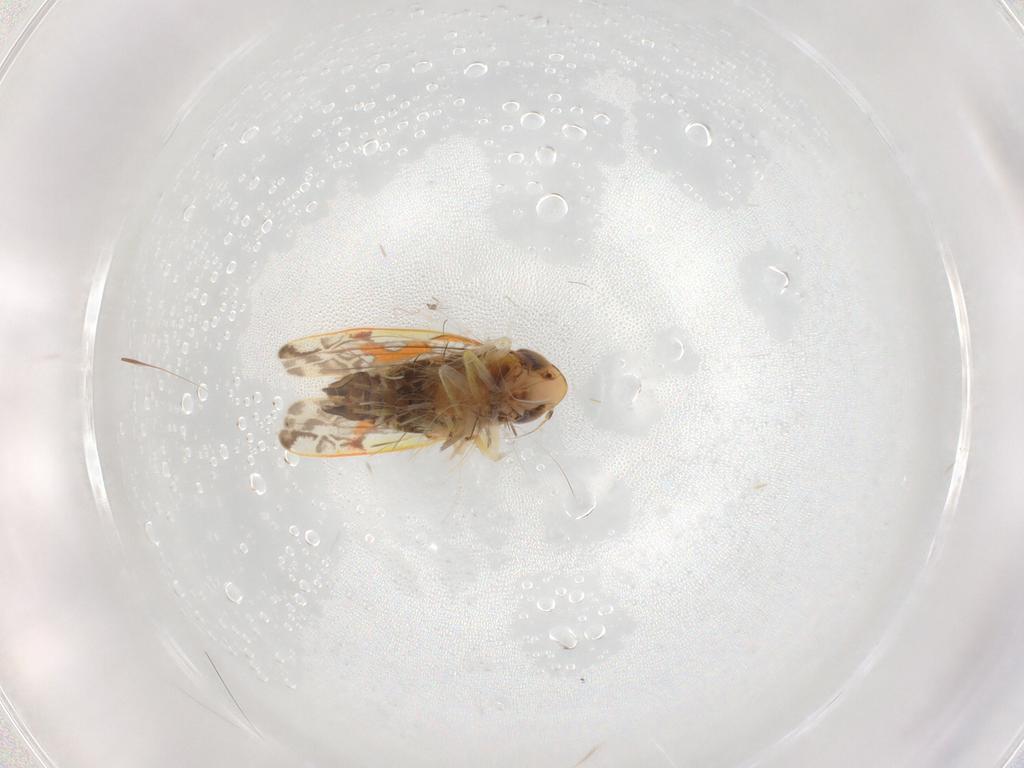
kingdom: Animalia
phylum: Arthropoda
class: Insecta
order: Hemiptera
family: Cicadellidae
